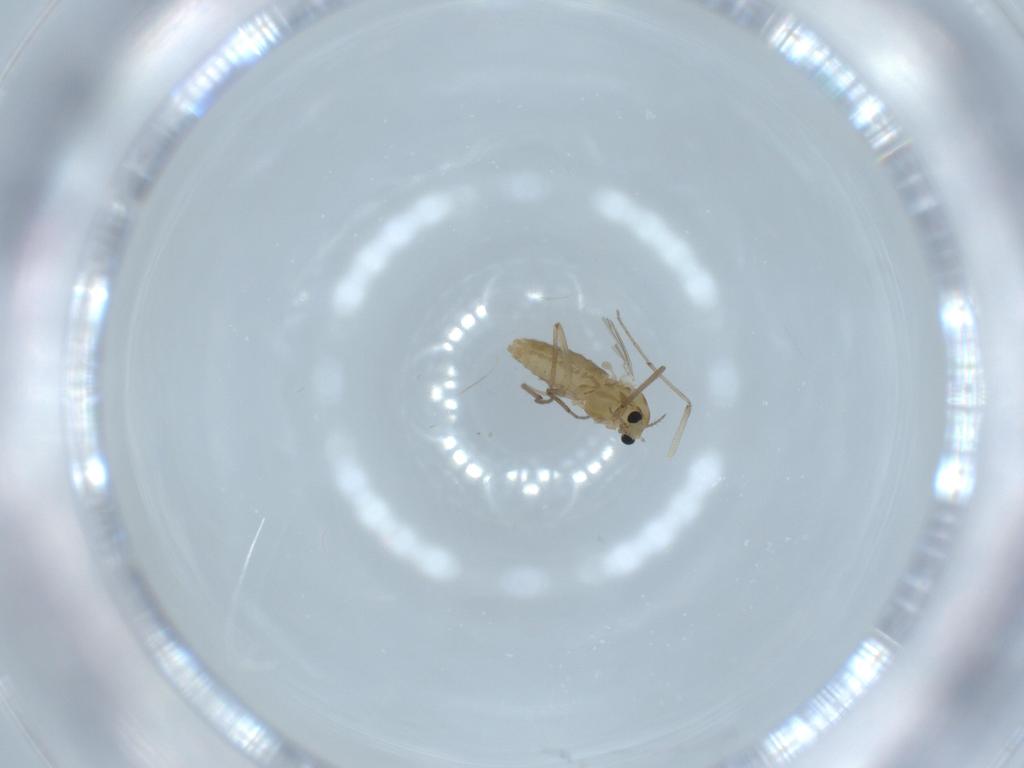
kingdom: Animalia
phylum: Arthropoda
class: Insecta
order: Diptera
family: Chironomidae
